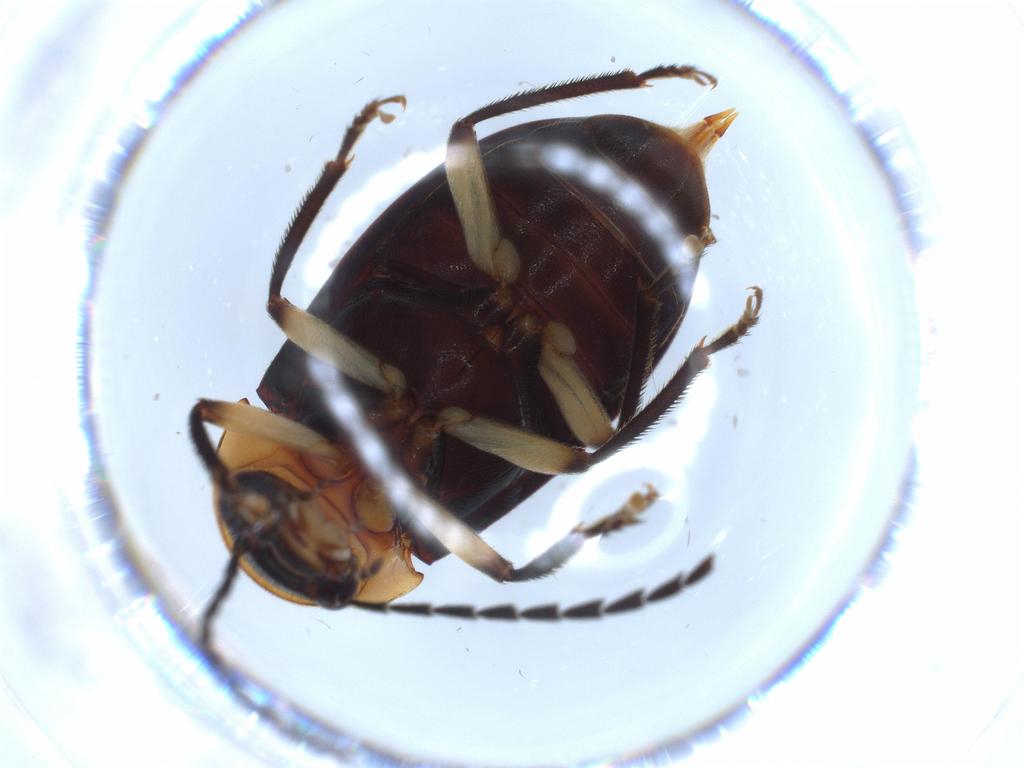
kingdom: Animalia
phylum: Arthropoda
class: Insecta
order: Coleoptera
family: Ptilodactylidae
